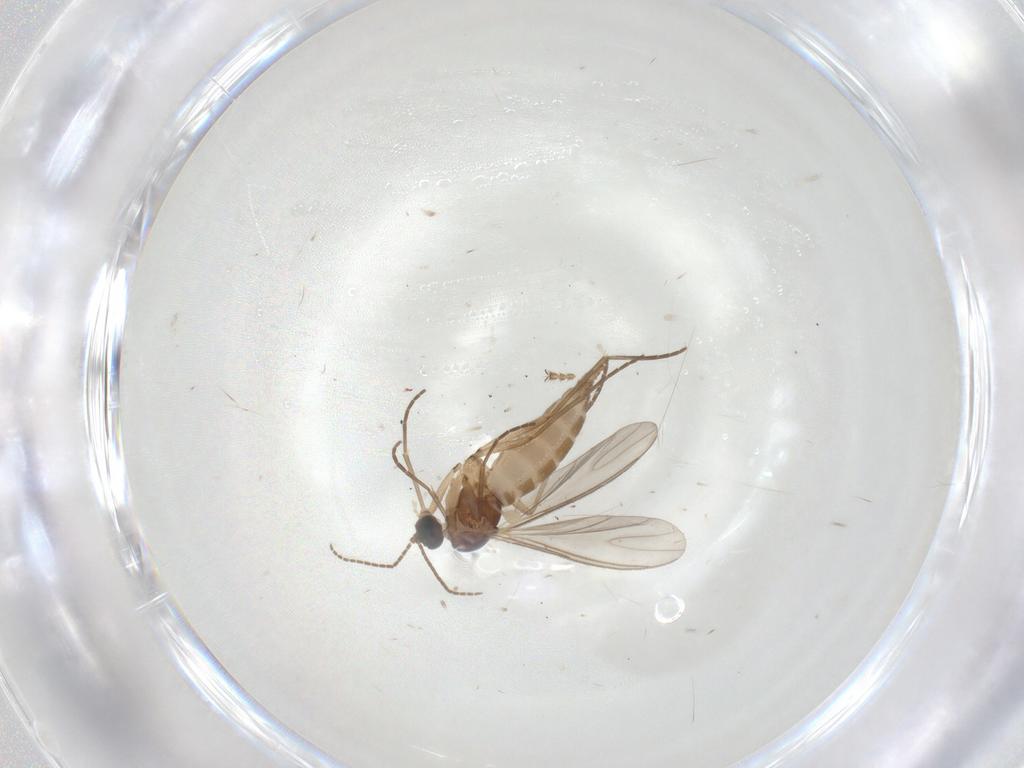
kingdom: Animalia
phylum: Arthropoda
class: Insecta
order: Diptera
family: Sciaridae
